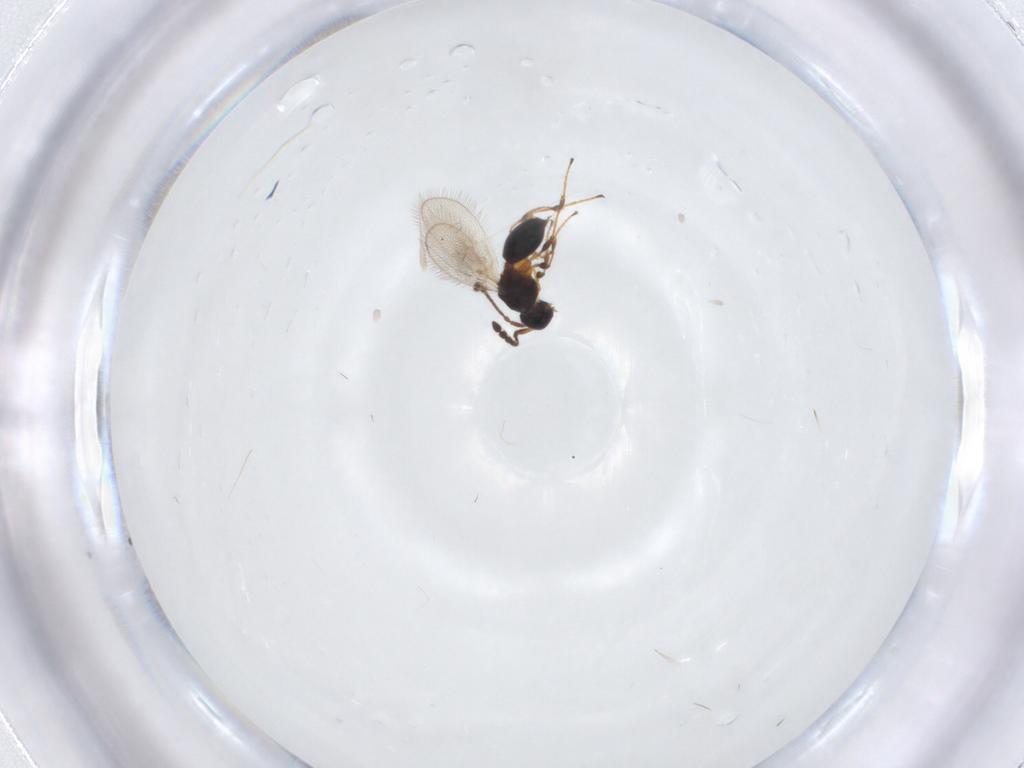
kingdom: Animalia
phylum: Arthropoda
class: Insecta
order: Hymenoptera
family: Diapriidae
